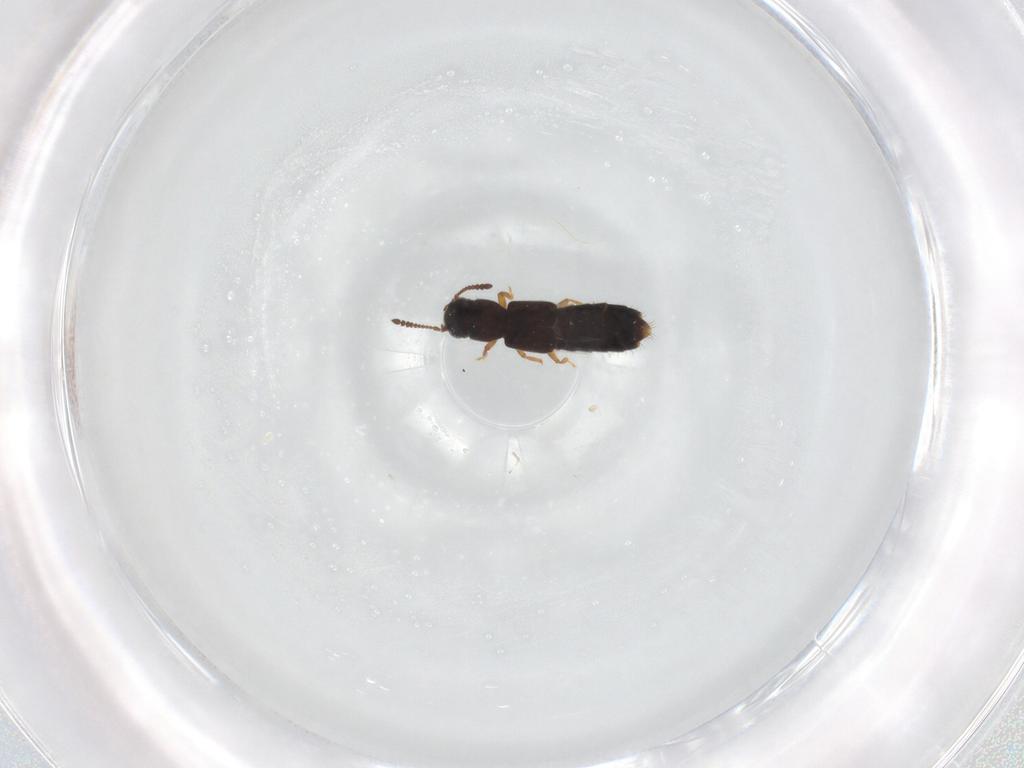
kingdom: Animalia
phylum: Arthropoda
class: Insecta
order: Coleoptera
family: Staphylinidae
